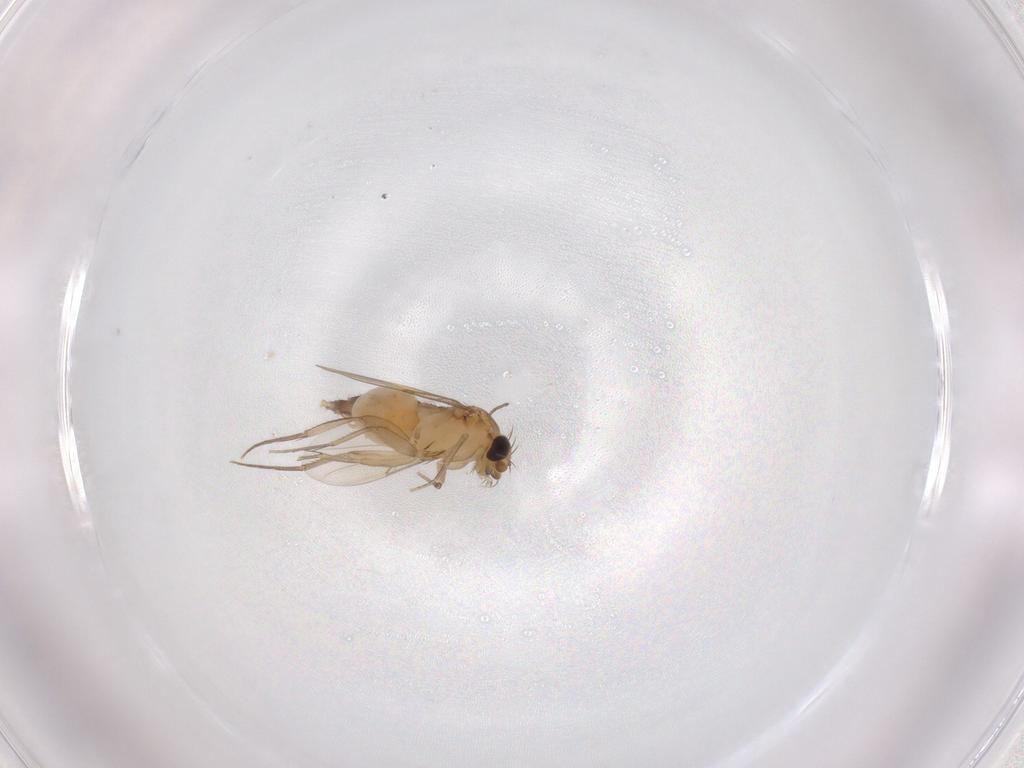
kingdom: Animalia
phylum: Arthropoda
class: Insecta
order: Diptera
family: Phoridae
